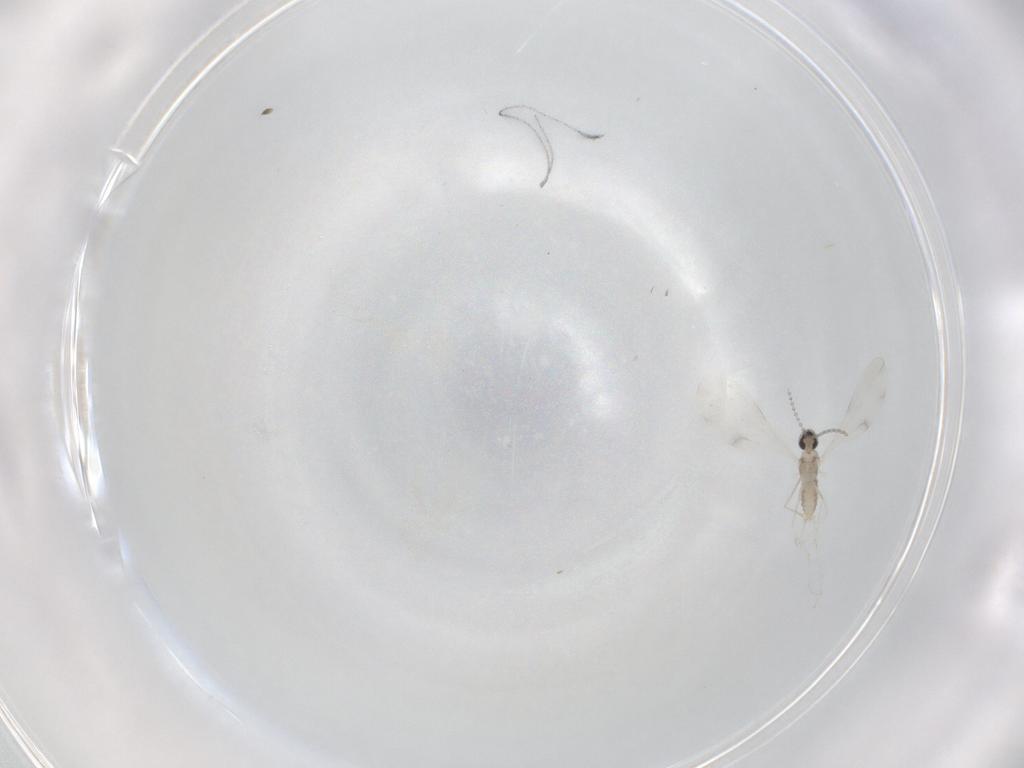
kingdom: Animalia
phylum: Arthropoda
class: Insecta
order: Diptera
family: Cecidomyiidae
